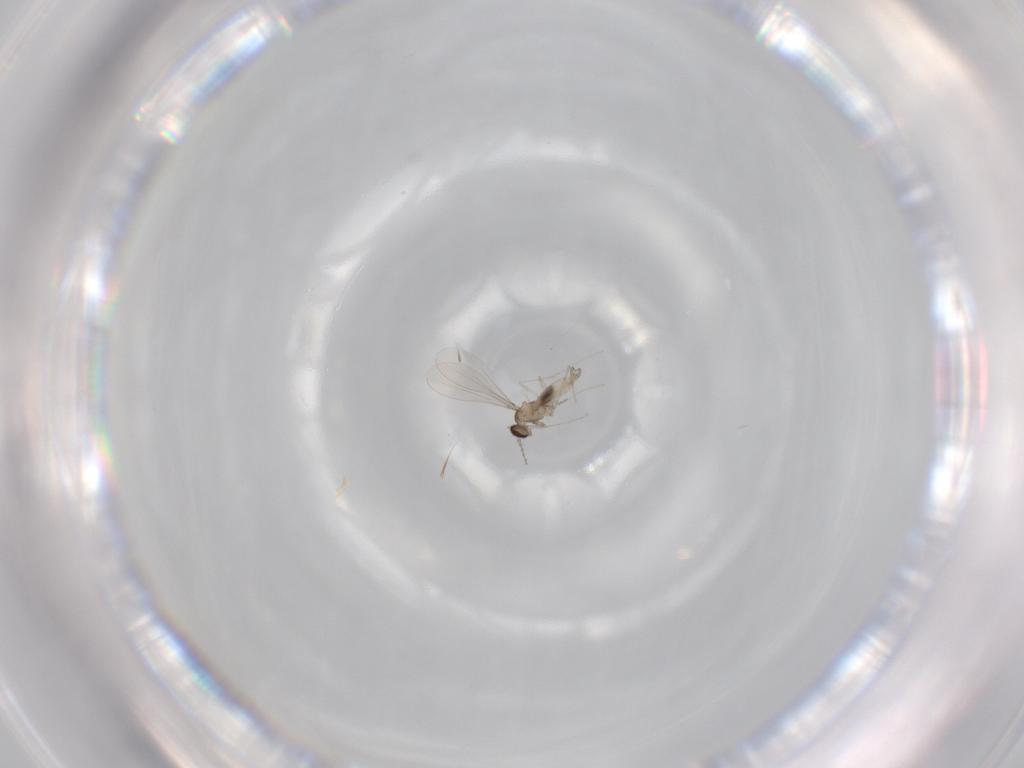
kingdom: Animalia
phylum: Arthropoda
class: Insecta
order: Diptera
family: Cecidomyiidae
